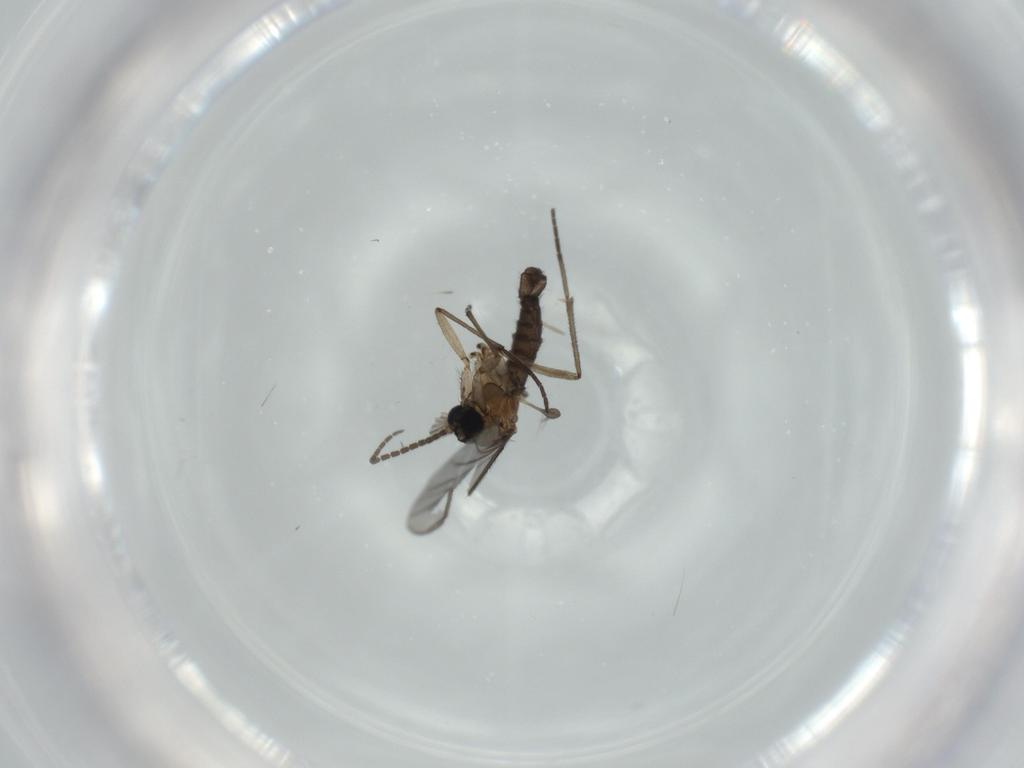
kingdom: Animalia
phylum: Arthropoda
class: Insecta
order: Diptera
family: Sciaridae
